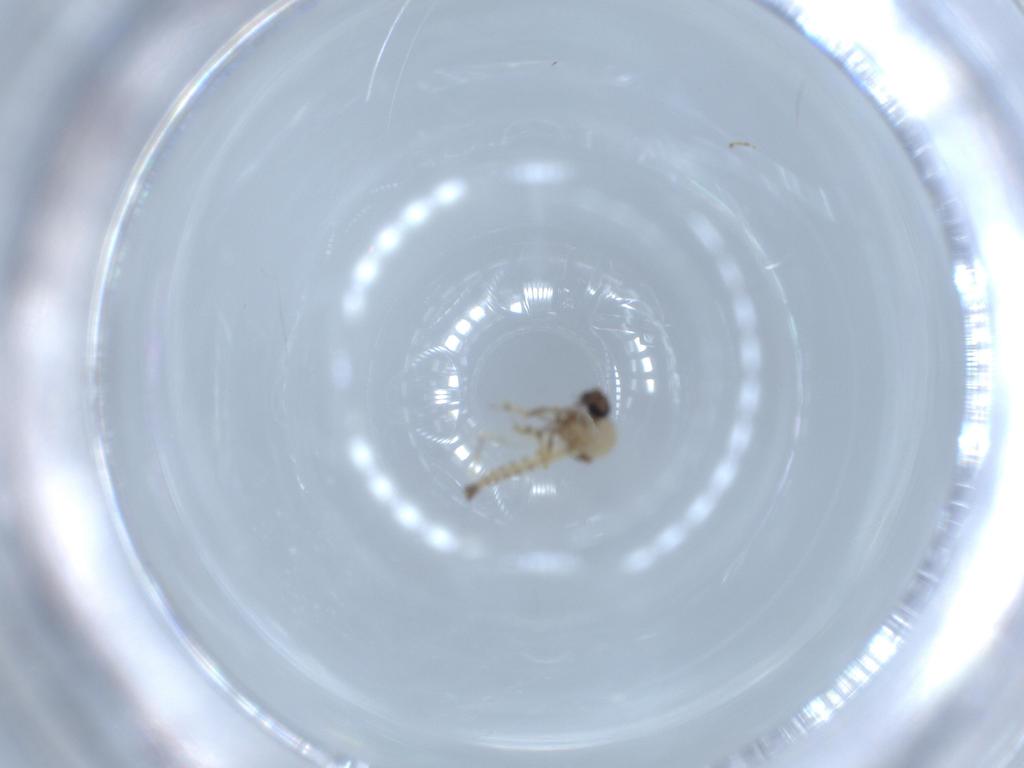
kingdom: Animalia
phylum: Arthropoda
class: Insecta
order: Diptera
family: Ceratopogonidae
